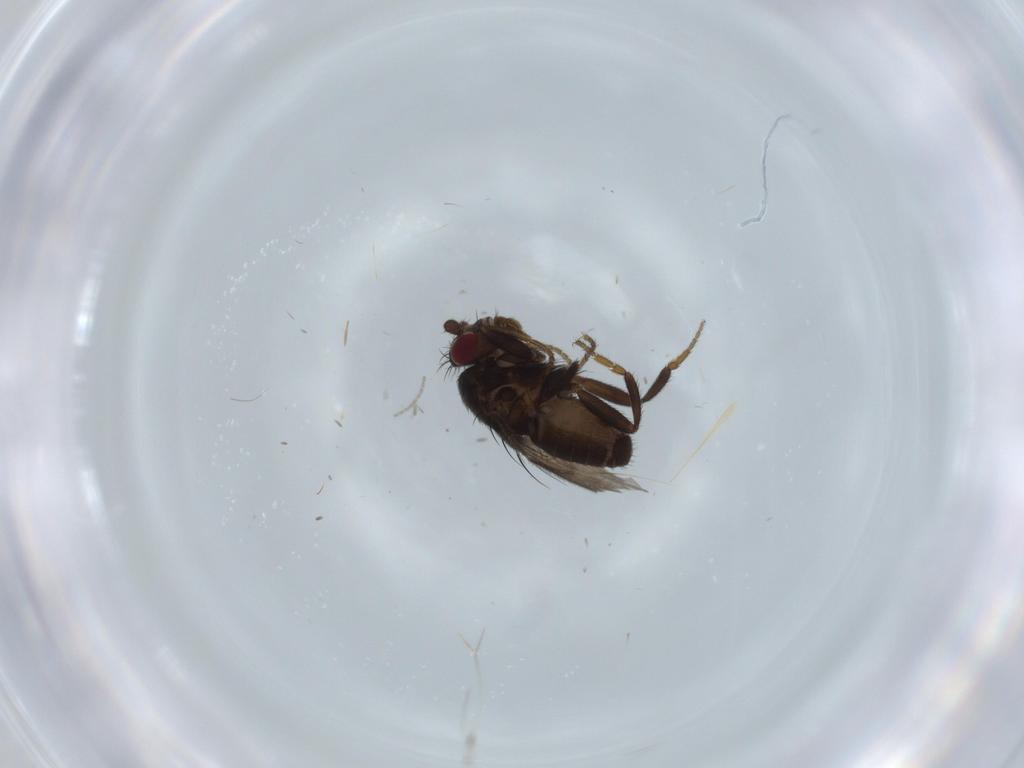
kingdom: Animalia
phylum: Arthropoda
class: Insecta
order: Diptera
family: Sphaeroceridae
